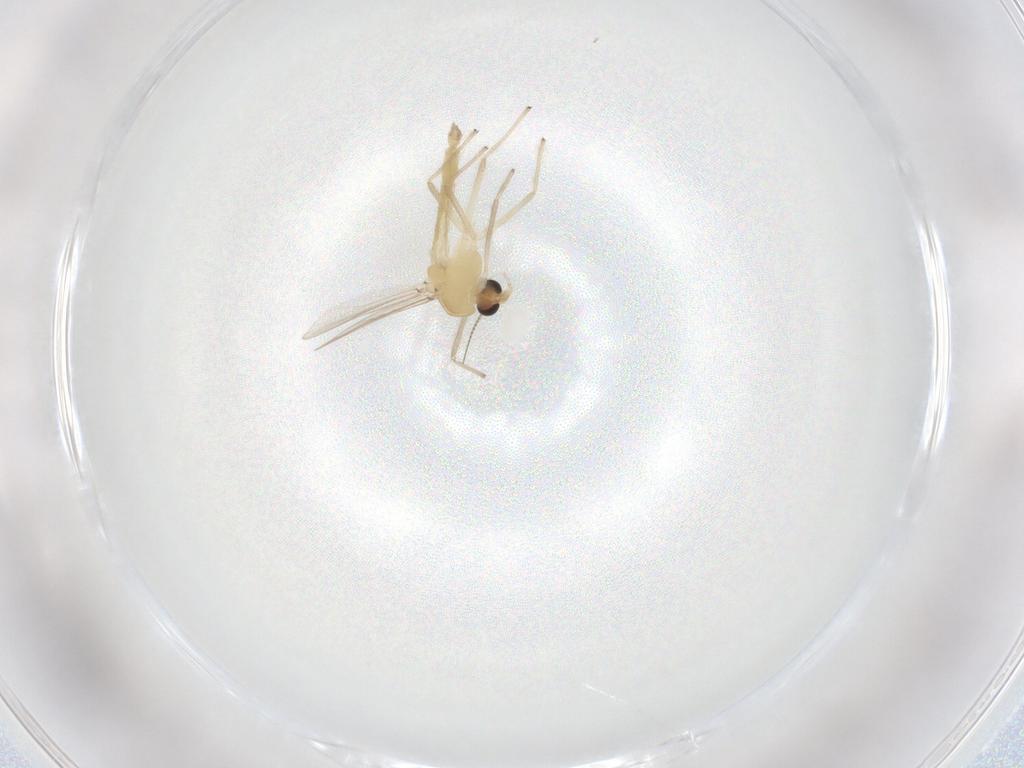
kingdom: Animalia
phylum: Arthropoda
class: Insecta
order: Diptera
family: Chironomidae
